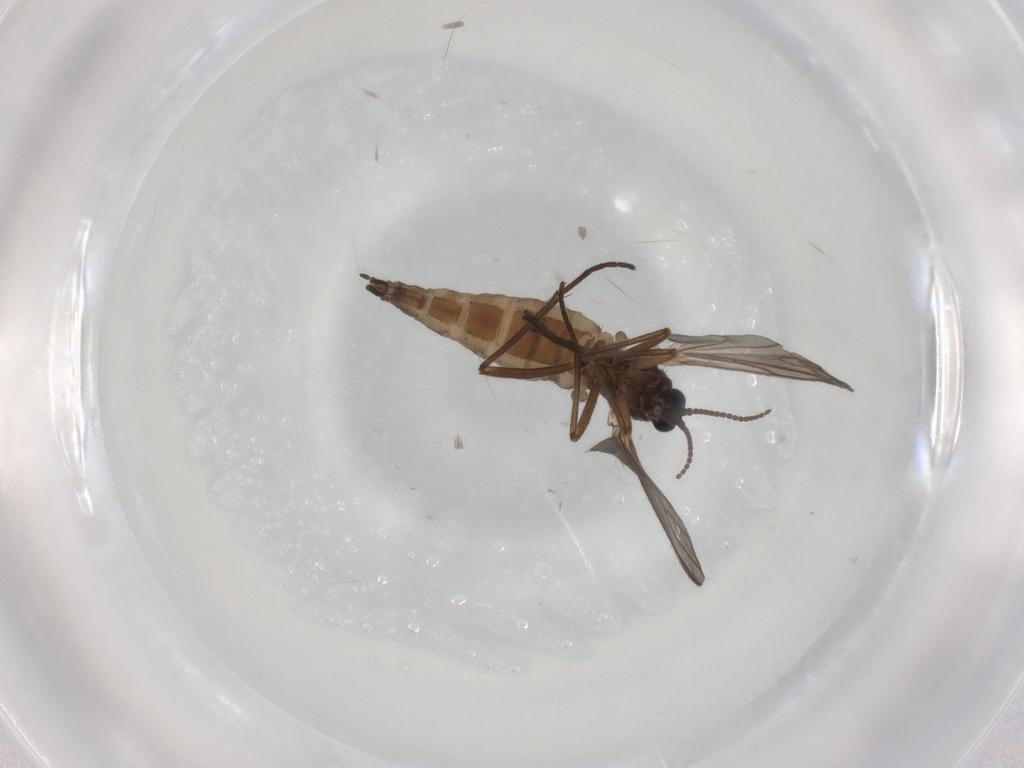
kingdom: Animalia
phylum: Arthropoda
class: Insecta
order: Diptera
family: Sciaridae
